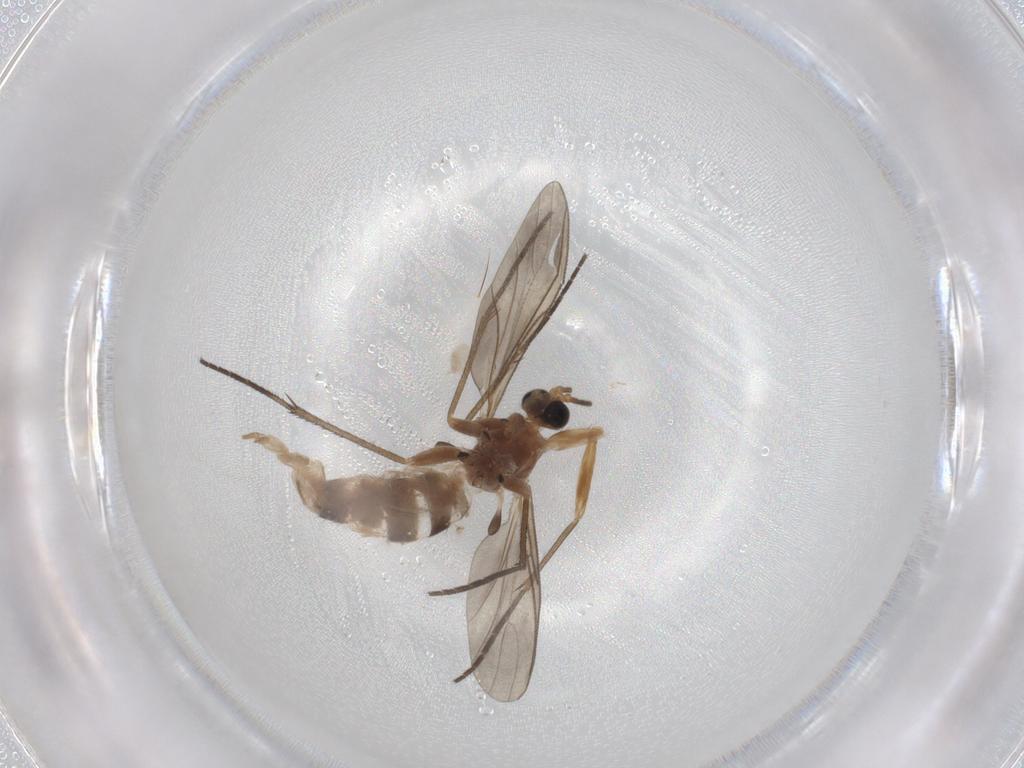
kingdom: Animalia
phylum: Arthropoda
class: Insecta
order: Diptera
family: Sciaridae
